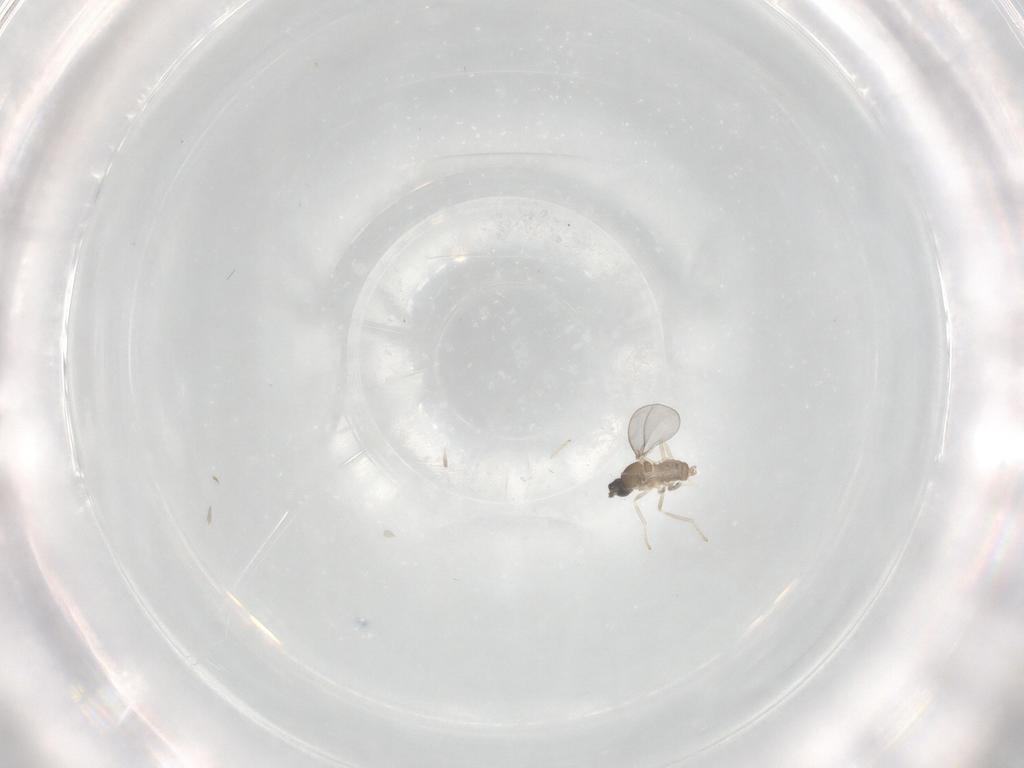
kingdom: Animalia
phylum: Arthropoda
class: Insecta
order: Diptera
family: Cecidomyiidae
